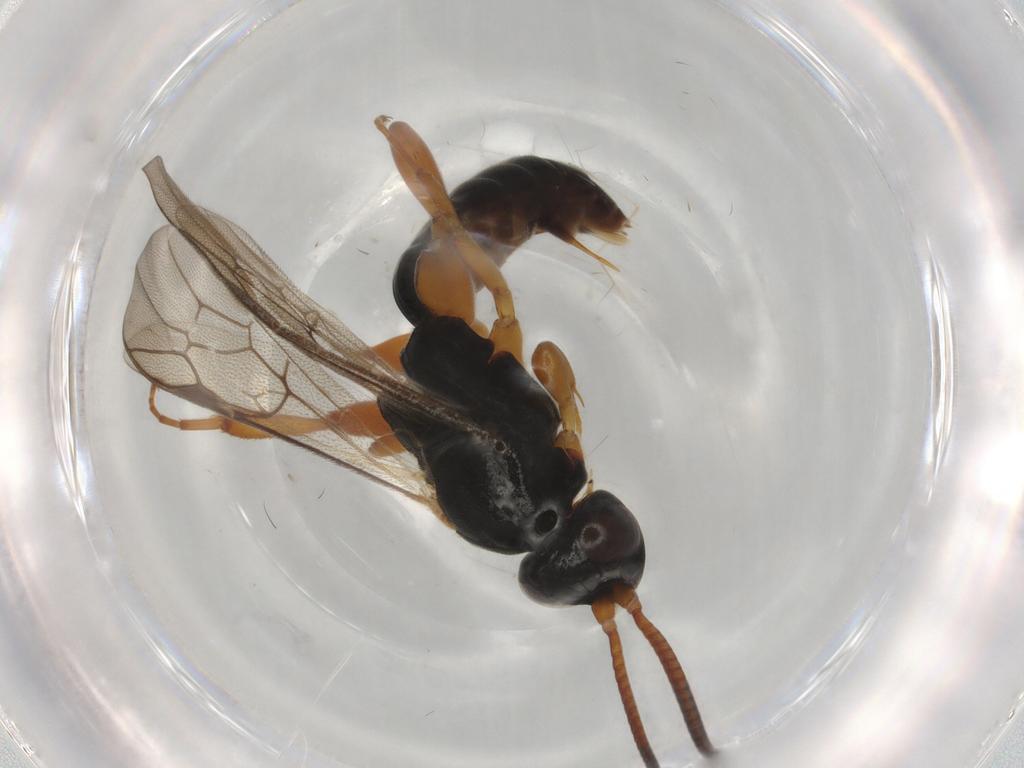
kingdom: Animalia
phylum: Arthropoda
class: Insecta
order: Hymenoptera
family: Ichneumonidae
